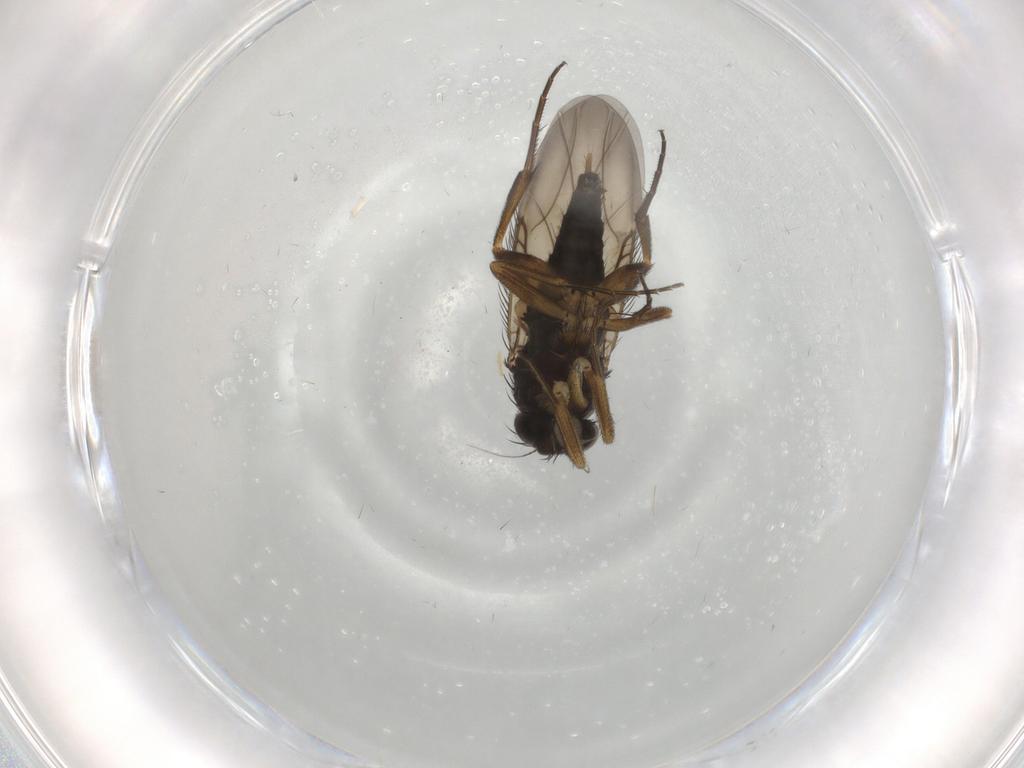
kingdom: Animalia
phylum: Arthropoda
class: Insecta
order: Diptera
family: Phoridae
